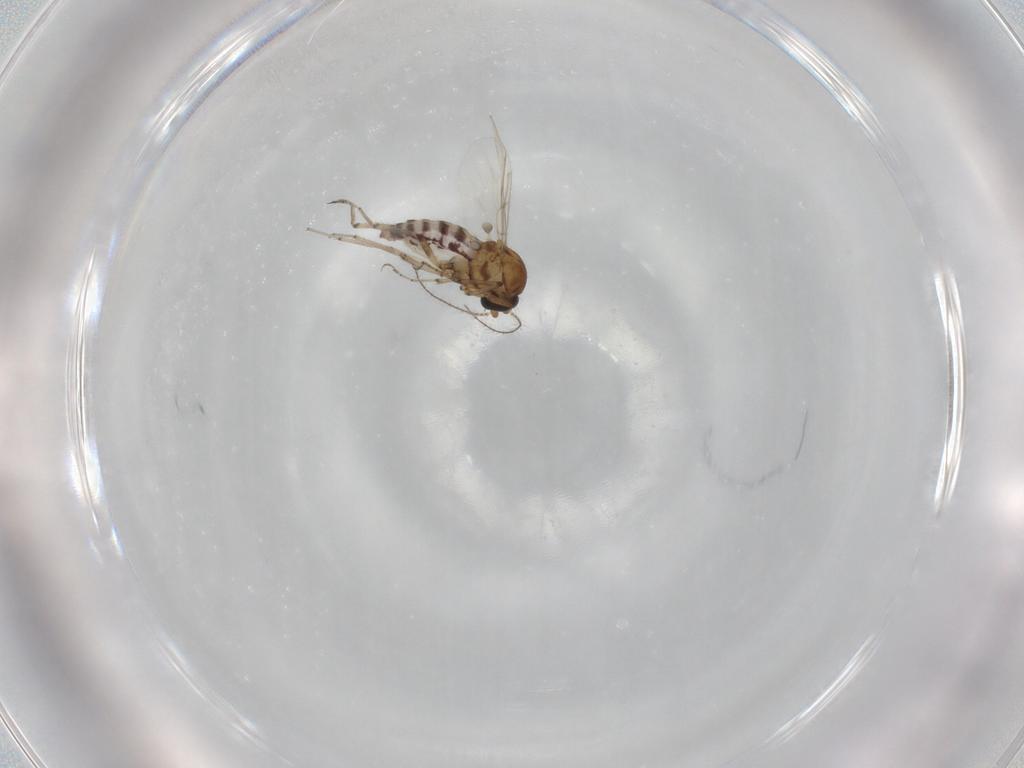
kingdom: Animalia
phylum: Arthropoda
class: Insecta
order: Diptera
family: Ceratopogonidae
